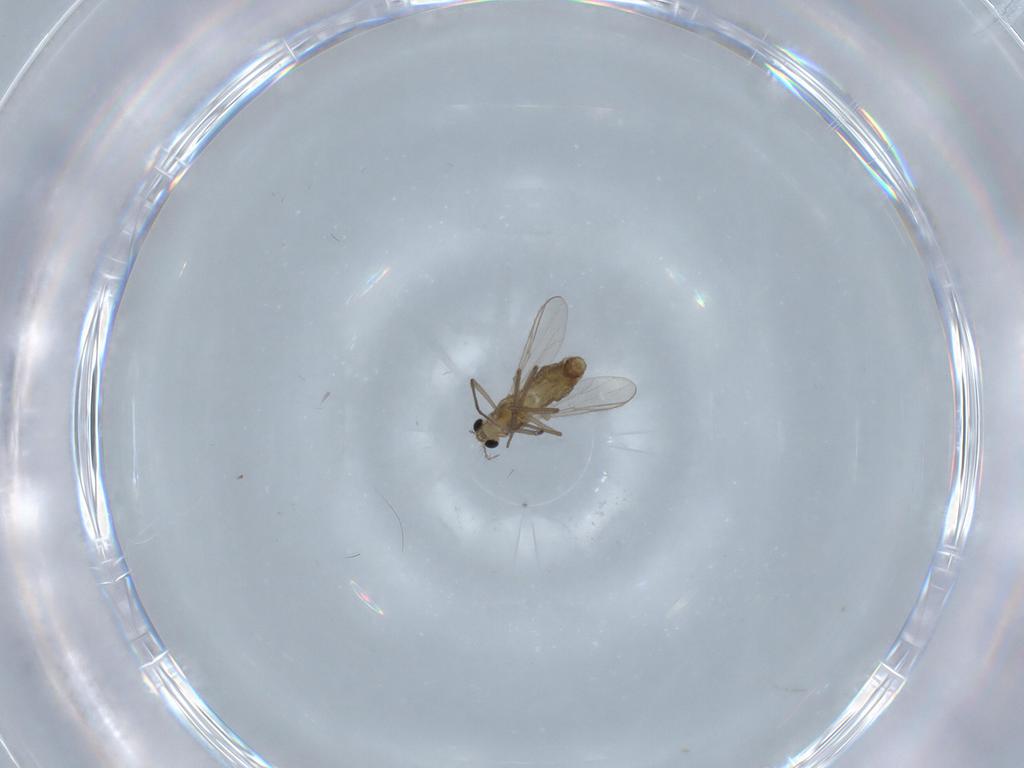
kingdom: Animalia
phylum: Arthropoda
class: Insecta
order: Diptera
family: Chironomidae
